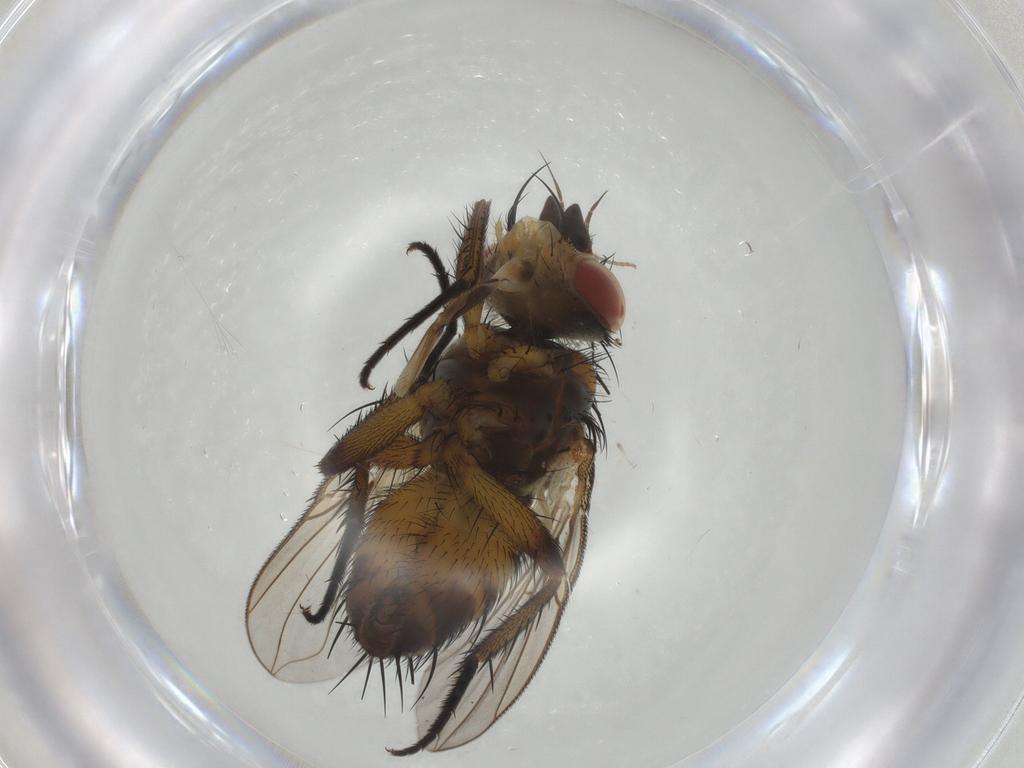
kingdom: Animalia
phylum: Arthropoda
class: Insecta
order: Diptera
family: Tachinidae
